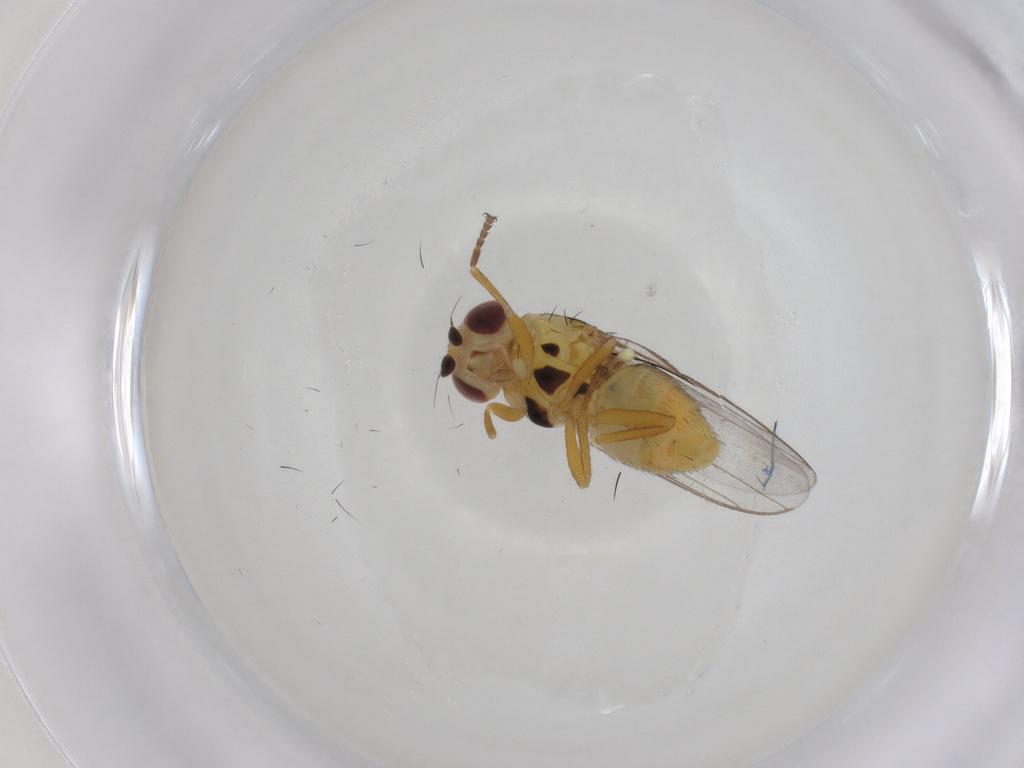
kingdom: Animalia
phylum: Arthropoda
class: Insecta
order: Diptera
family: Chloropidae
